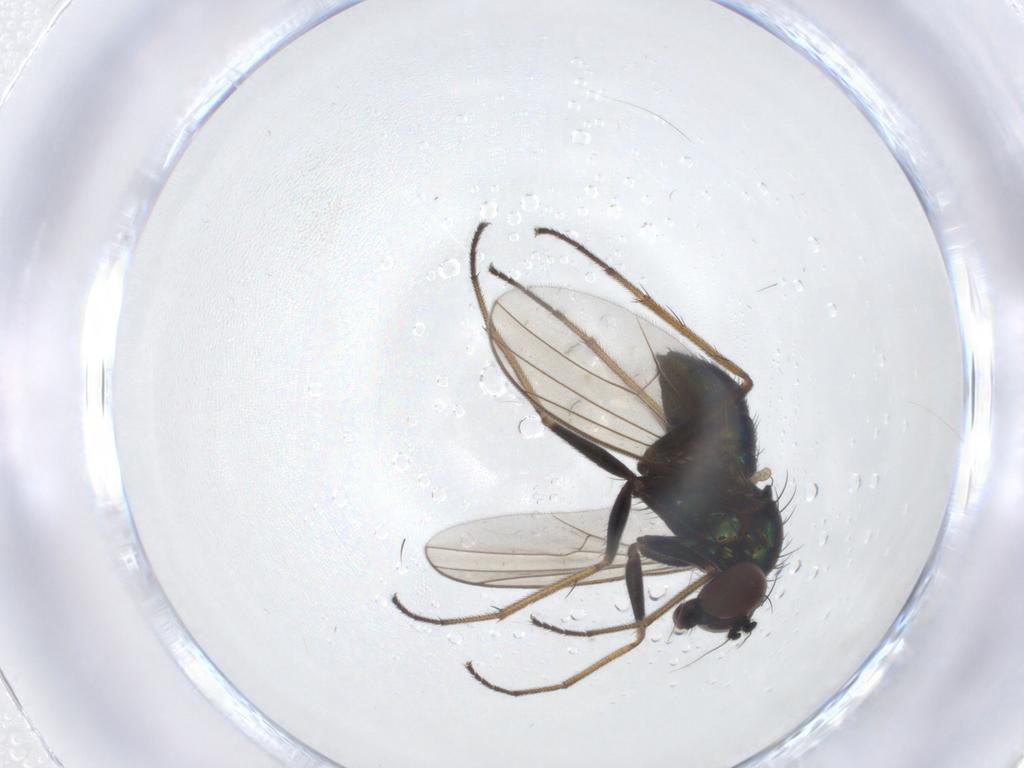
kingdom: Animalia
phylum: Arthropoda
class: Insecta
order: Diptera
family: Dolichopodidae
